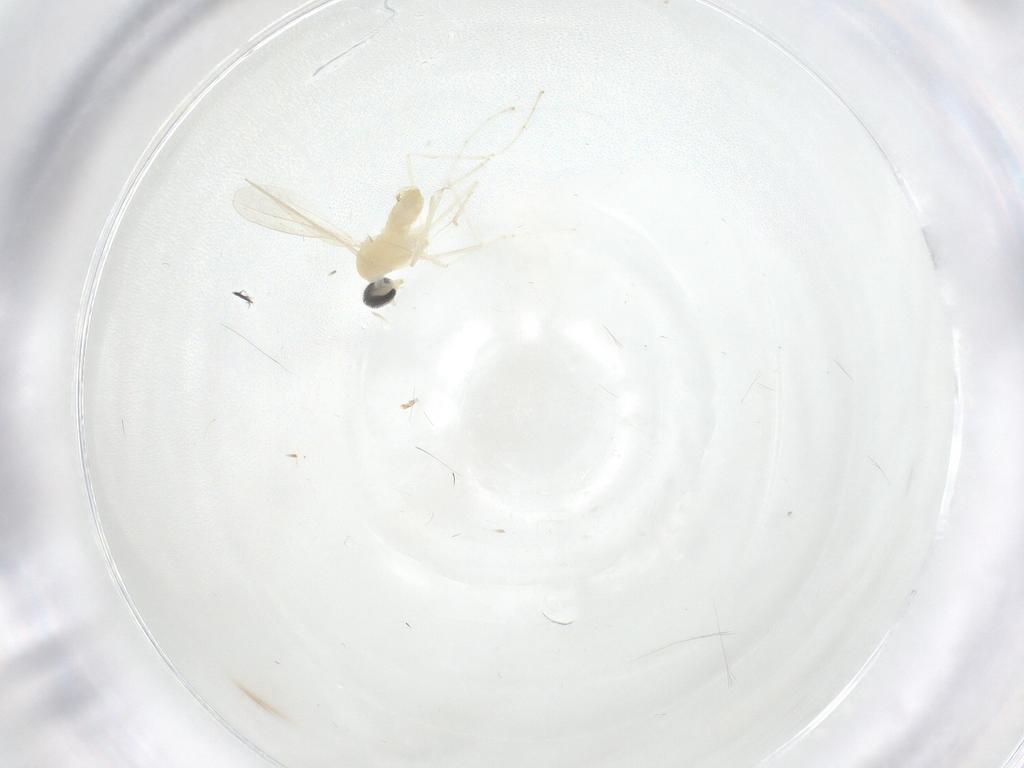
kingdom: Animalia
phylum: Arthropoda
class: Insecta
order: Diptera
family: Cecidomyiidae
